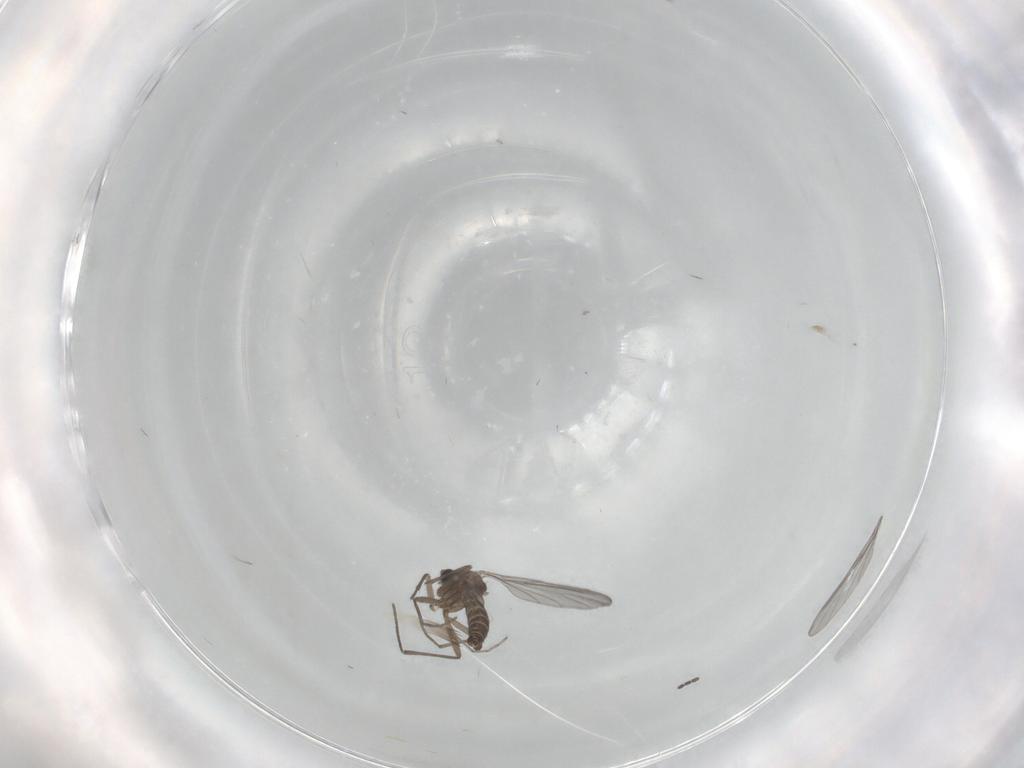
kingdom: Animalia
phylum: Arthropoda
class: Insecta
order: Diptera
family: Sciaridae
